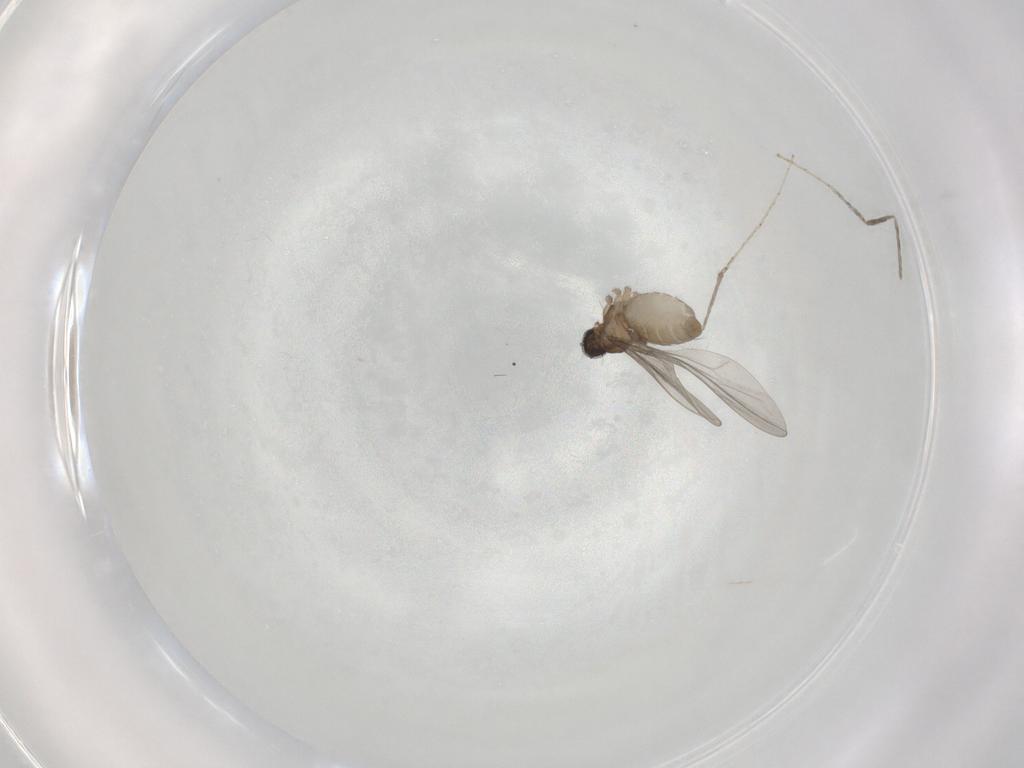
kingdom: Animalia
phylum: Arthropoda
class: Insecta
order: Diptera
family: Cecidomyiidae
